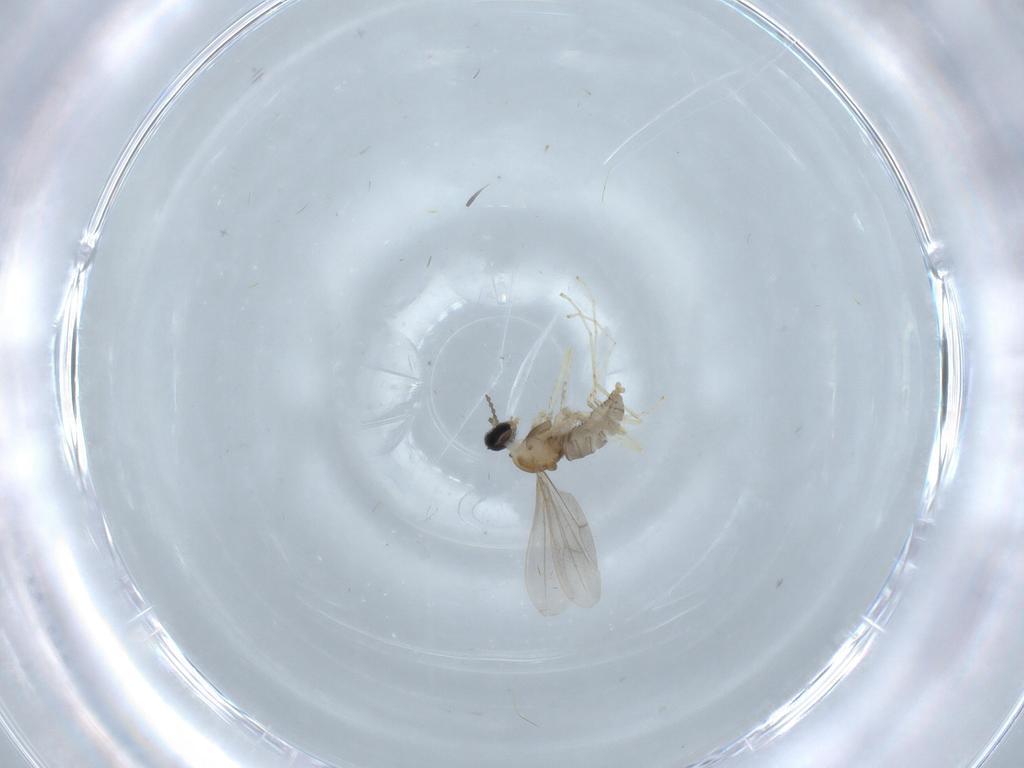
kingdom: Animalia
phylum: Arthropoda
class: Insecta
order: Diptera
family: Cecidomyiidae
